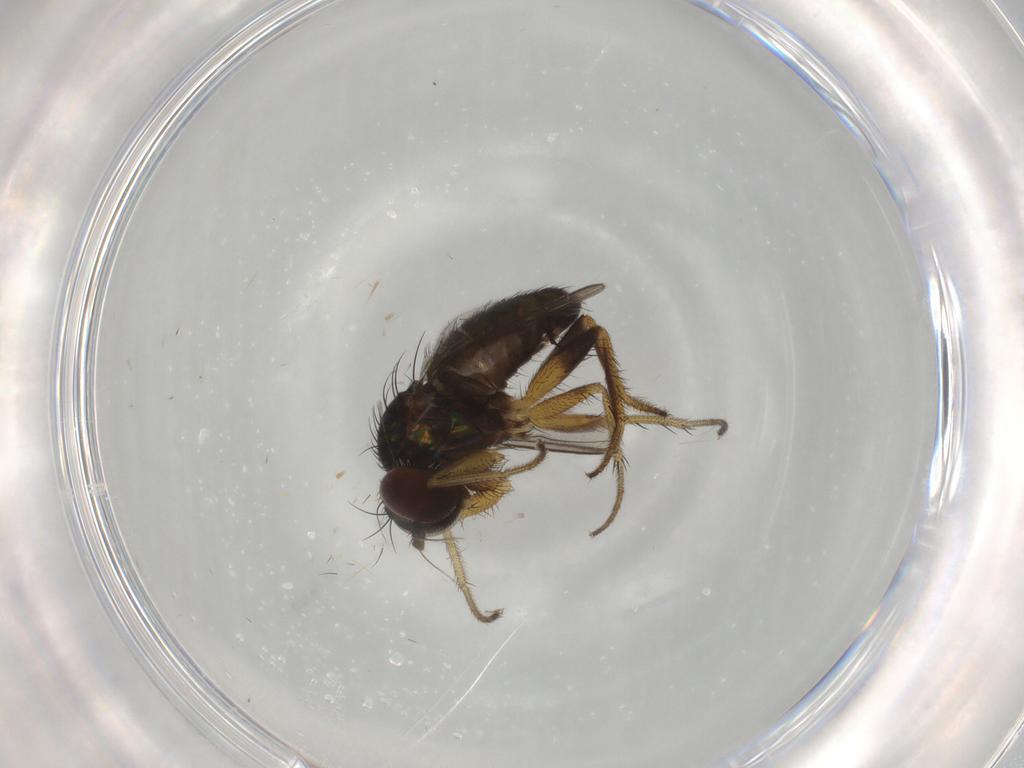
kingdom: Animalia
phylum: Arthropoda
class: Insecta
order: Diptera
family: Dolichopodidae
